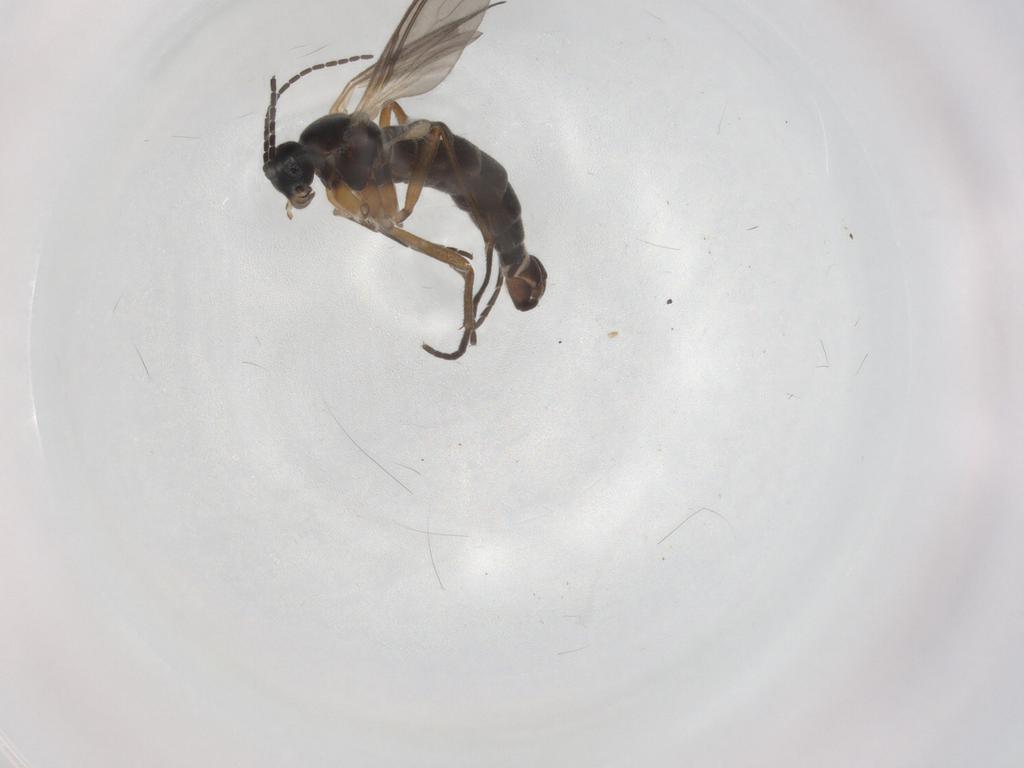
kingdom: Animalia
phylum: Arthropoda
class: Insecta
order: Diptera
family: Sciaridae
